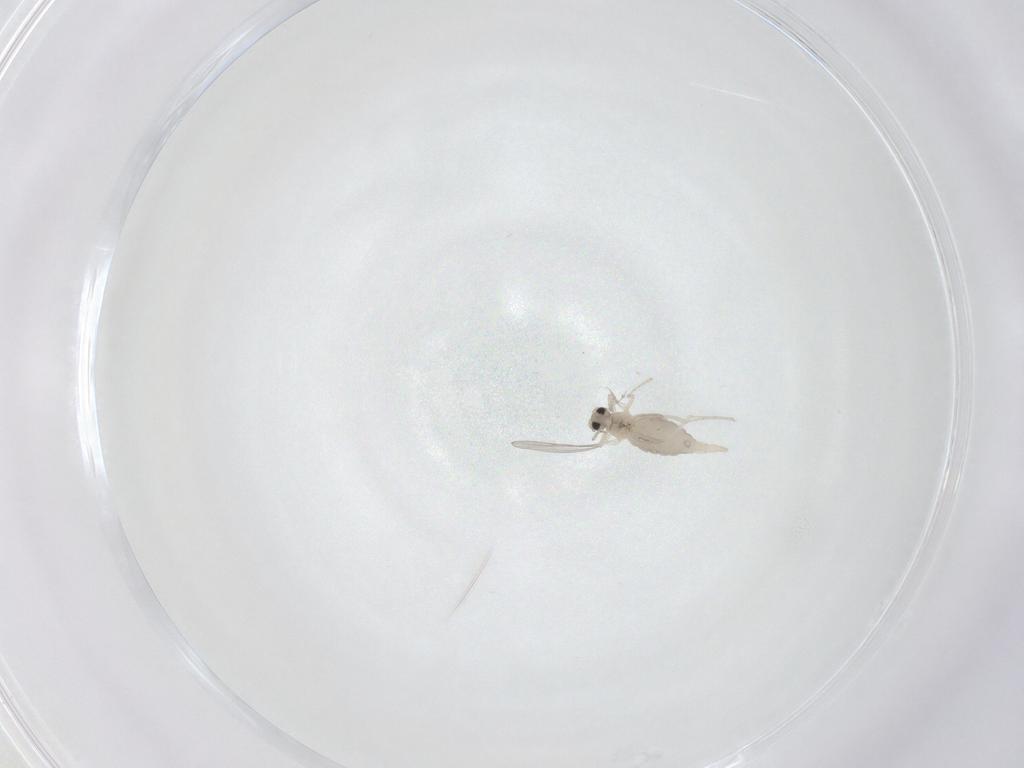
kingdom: Animalia
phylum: Arthropoda
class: Insecta
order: Diptera
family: Cecidomyiidae
